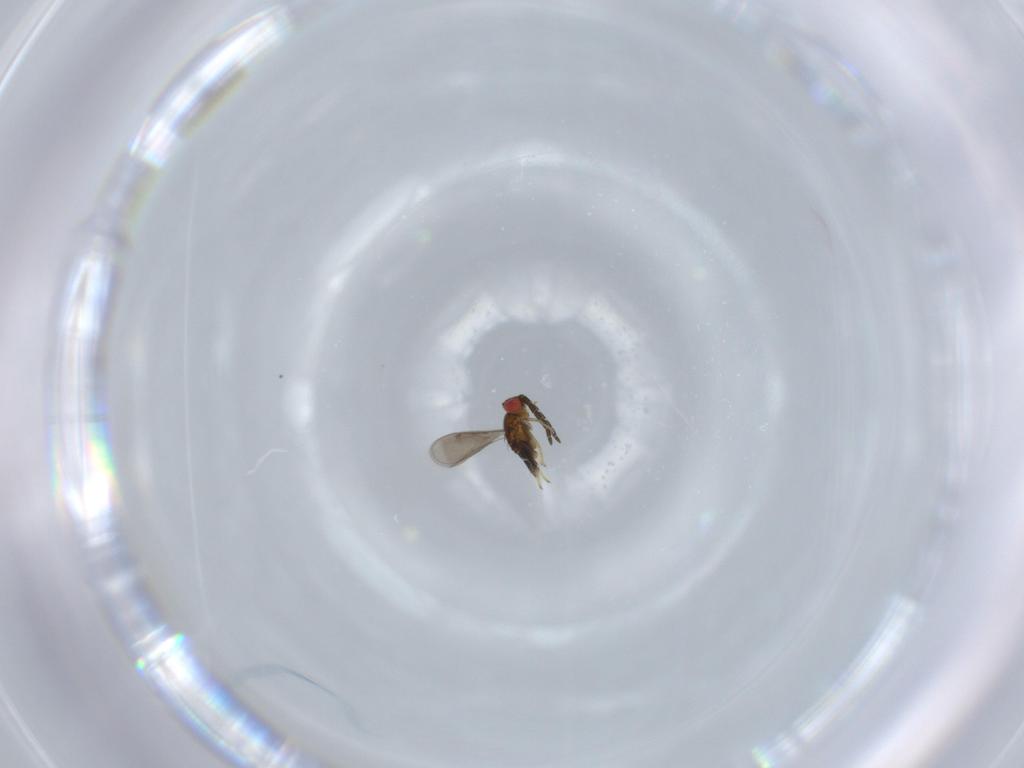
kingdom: Animalia
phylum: Arthropoda
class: Insecta
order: Hymenoptera
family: Aphelinidae
